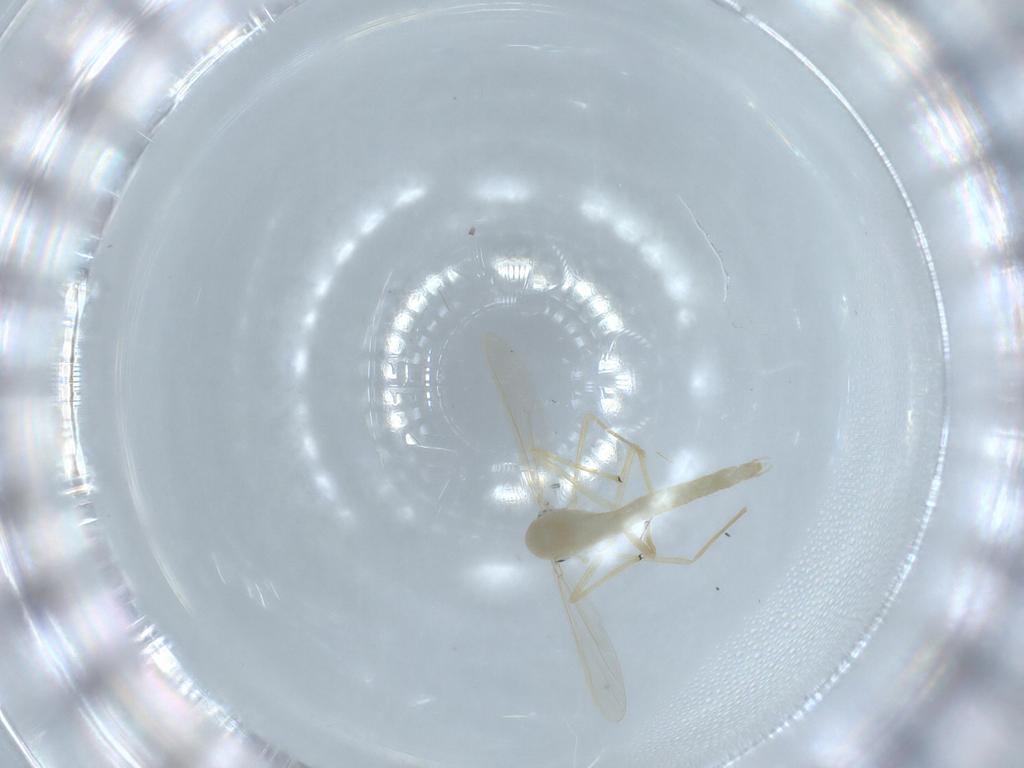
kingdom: Animalia
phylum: Arthropoda
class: Insecta
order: Diptera
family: Chironomidae
